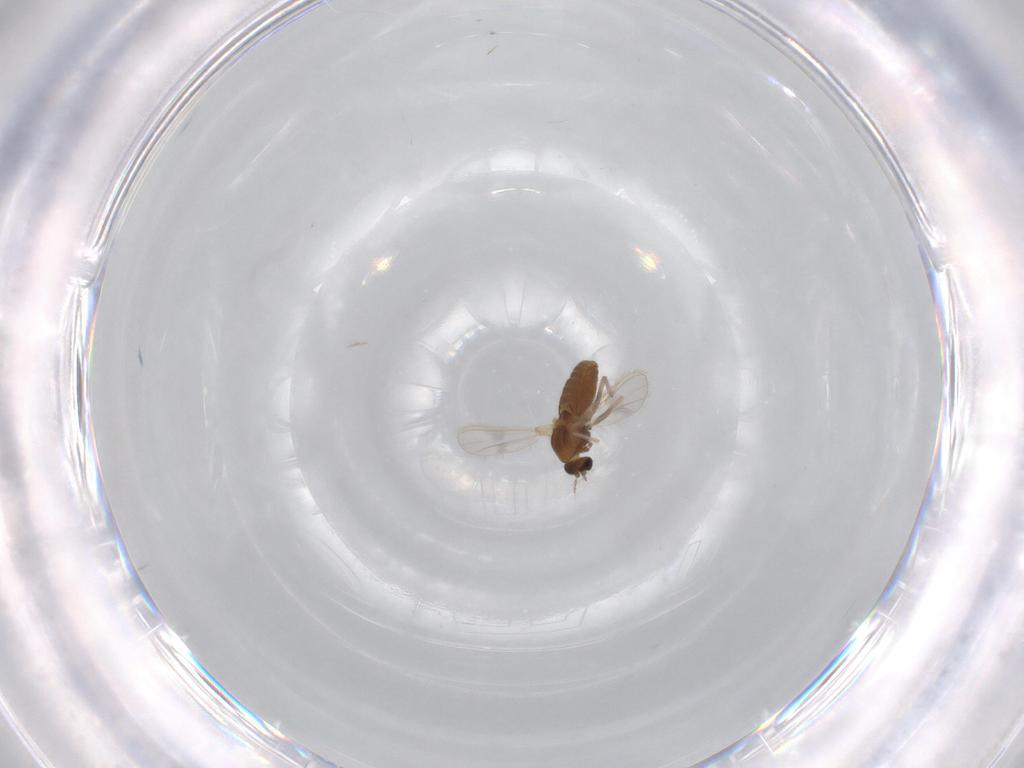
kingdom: Animalia
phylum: Arthropoda
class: Insecta
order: Diptera
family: Chironomidae
